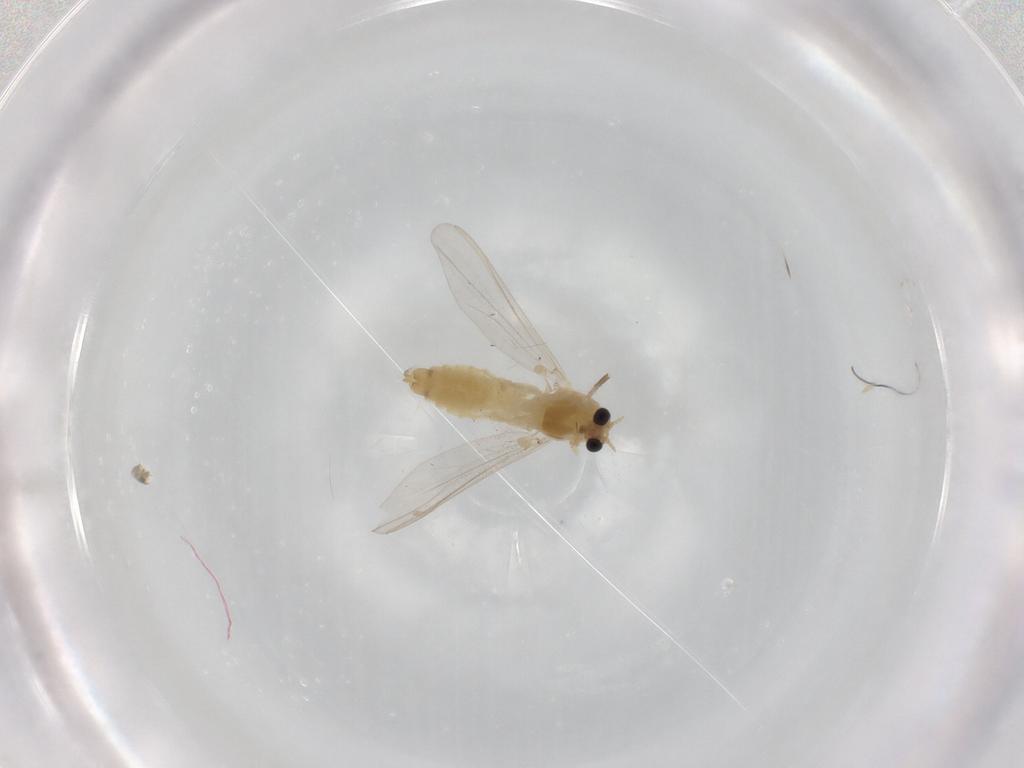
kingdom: Animalia
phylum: Arthropoda
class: Insecta
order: Diptera
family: Chironomidae
